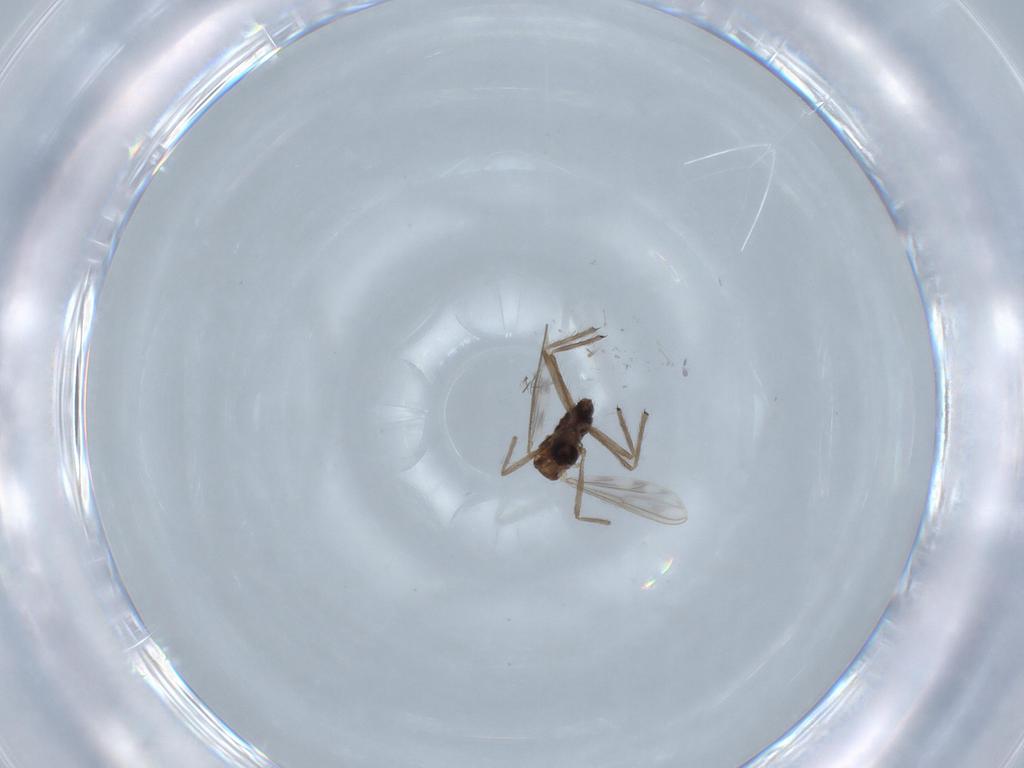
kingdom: Animalia
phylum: Arthropoda
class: Insecta
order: Diptera
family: Chironomidae
